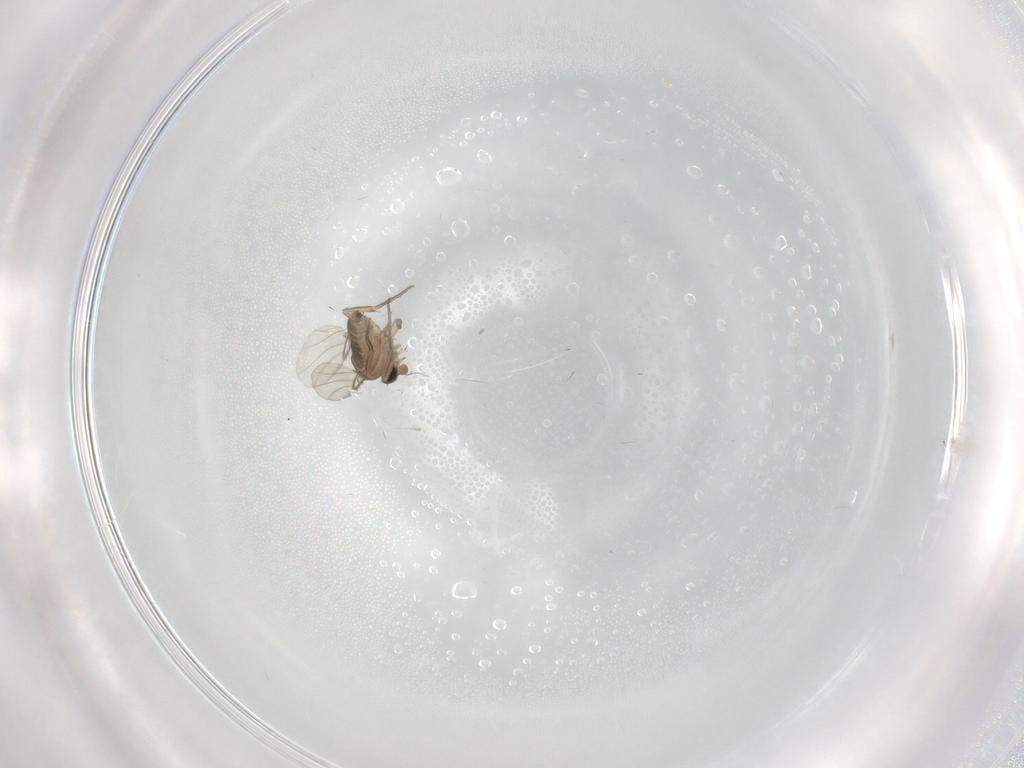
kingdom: Animalia
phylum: Arthropoda
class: Insecta
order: Diptera
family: Phoridae
